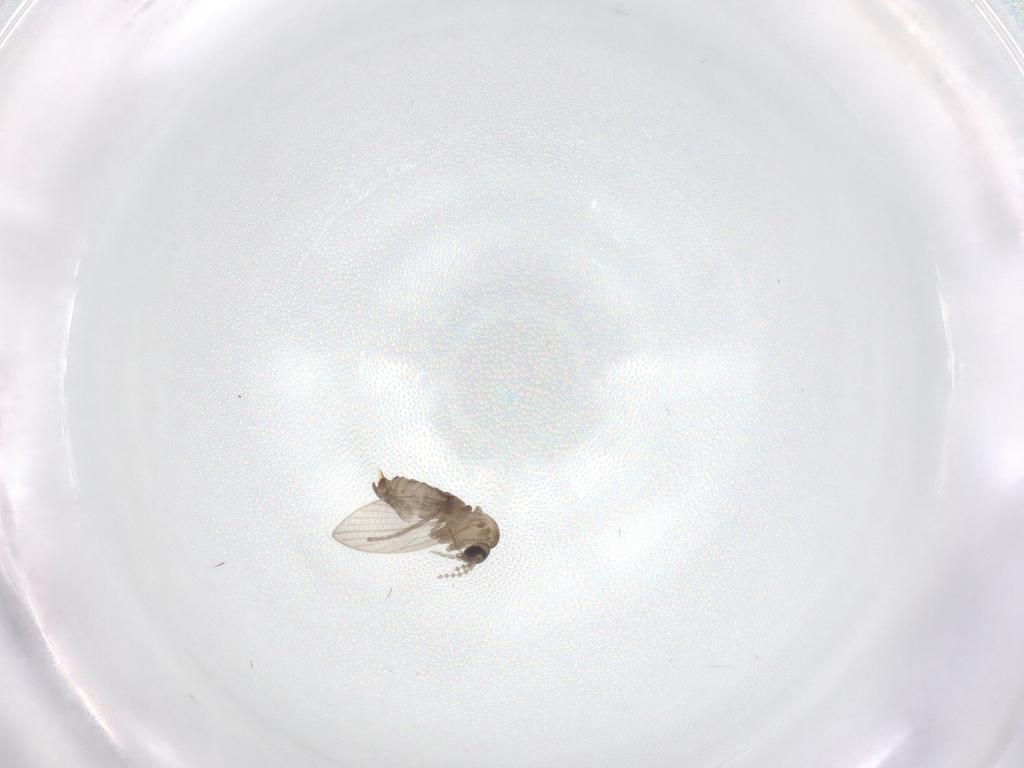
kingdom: Animalia
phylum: Arthropoda
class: Insecta
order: Diptera
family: Psychodidae
